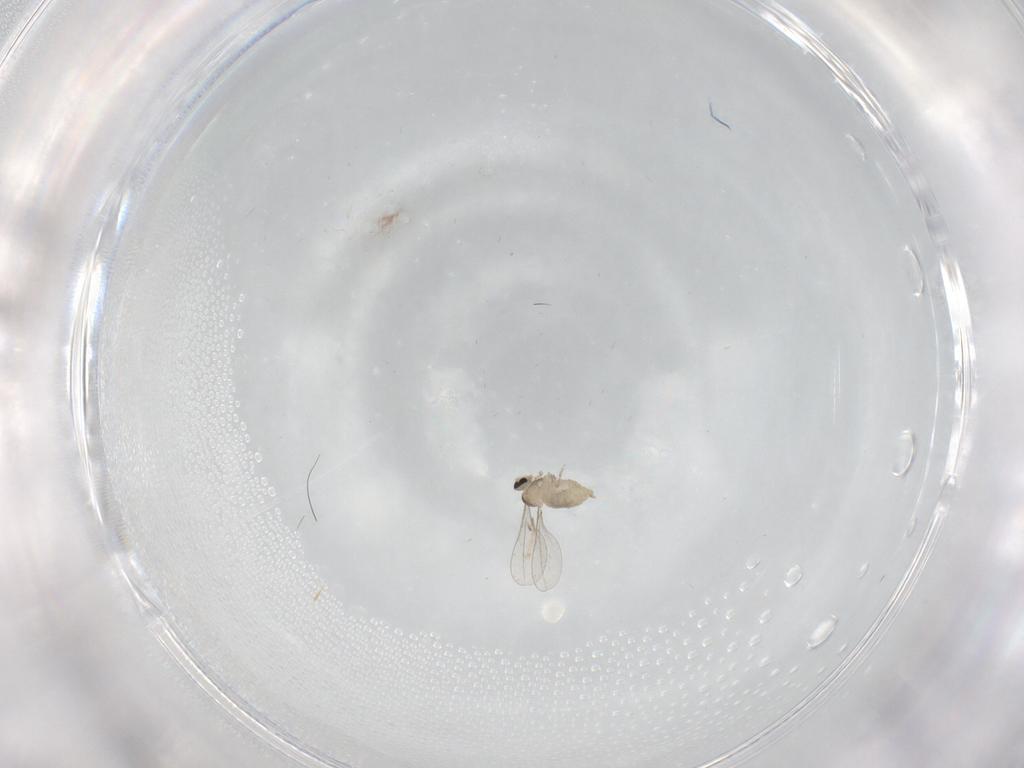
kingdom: Animalia
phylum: Arthropoda
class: Insecta
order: Diptera
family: Cecidomyiidae
